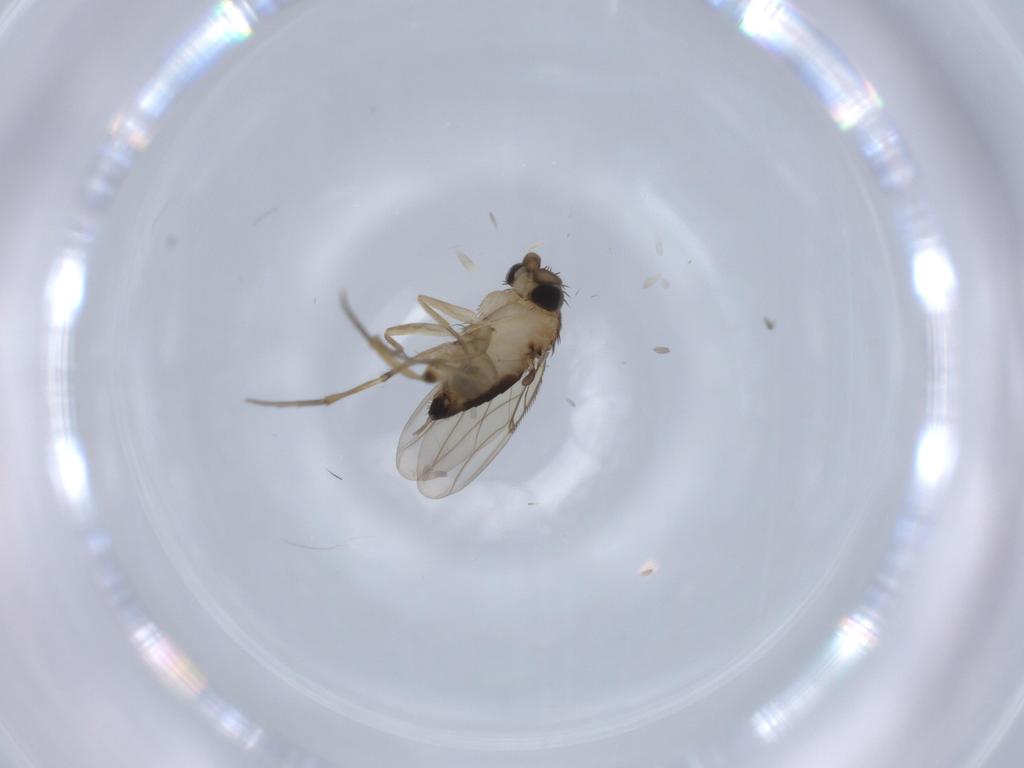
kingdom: Animalia
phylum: Arthropoda
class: Insecta
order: Diptera
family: Phoridae
